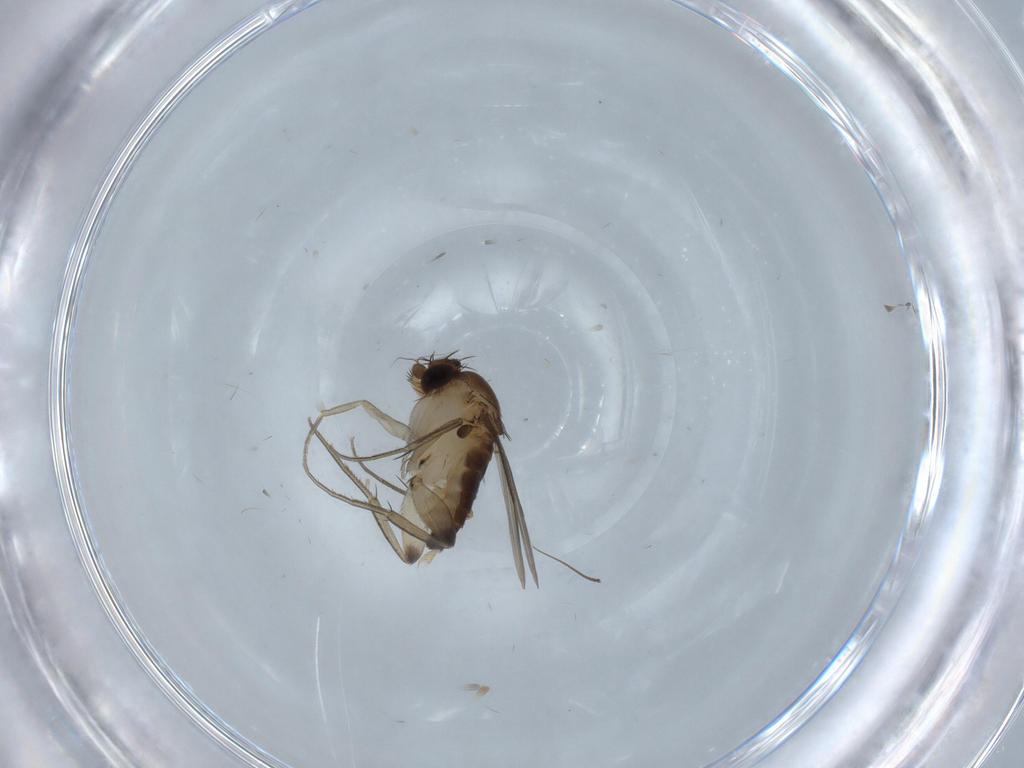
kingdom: Animalia
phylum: Arthropoda
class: Insecta
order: Diptera
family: Chironomidae
